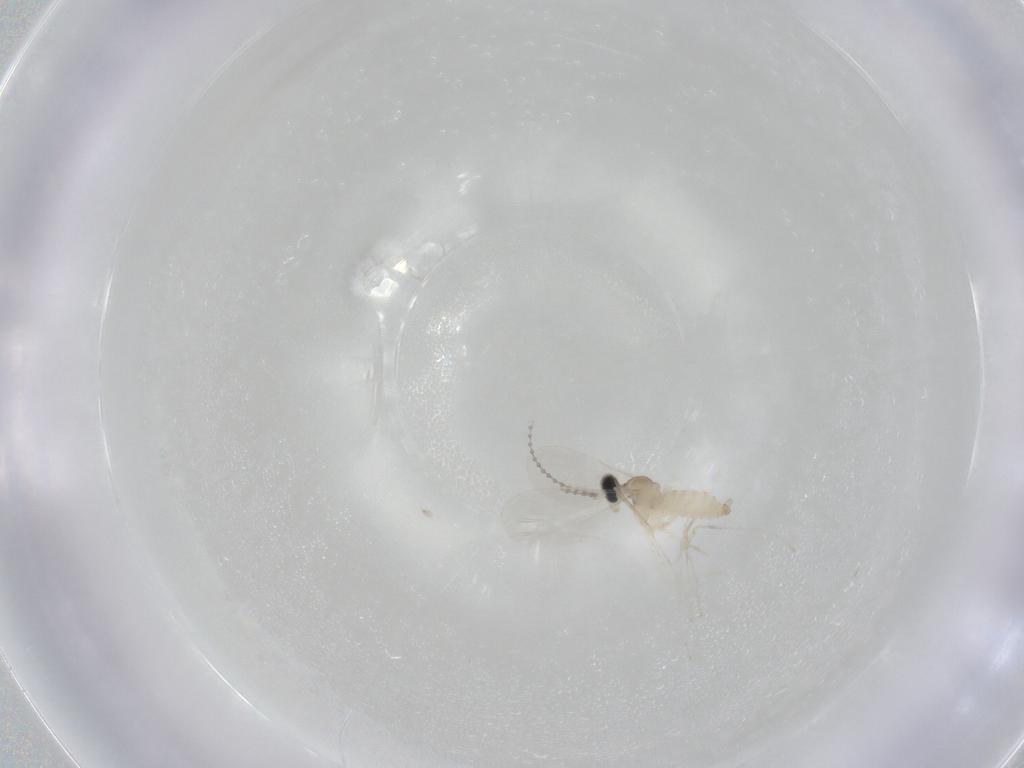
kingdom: Animalia
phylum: Arthropoda
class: Insecta
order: Diptera
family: Cecidomyiidae
